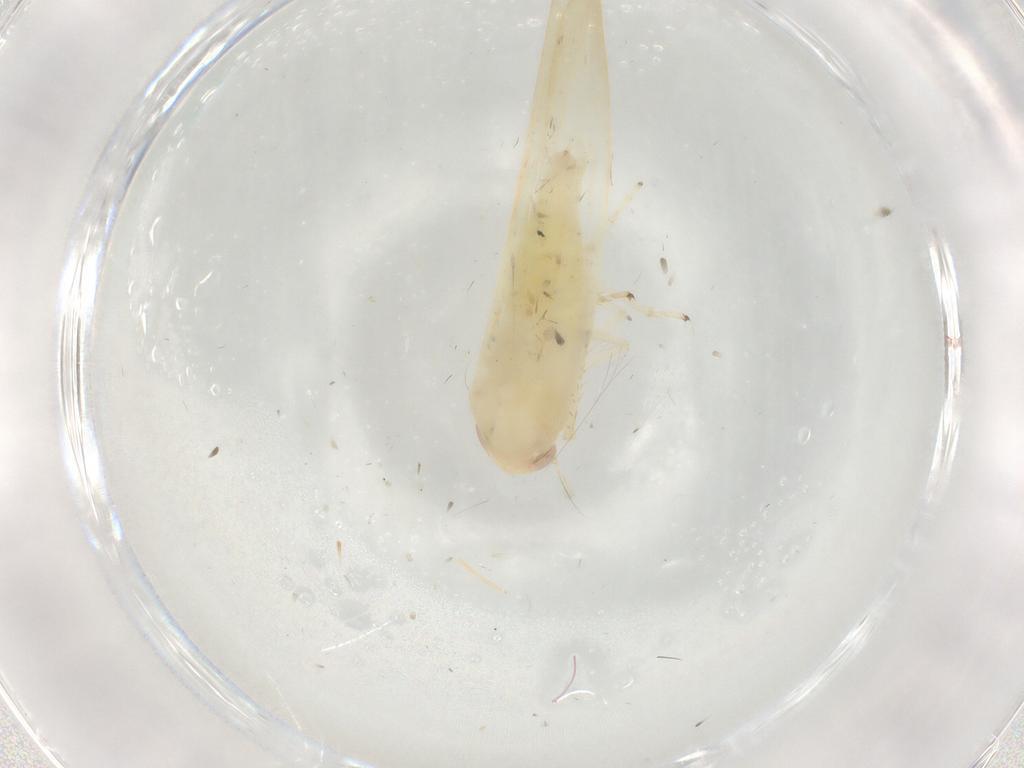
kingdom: Animalia
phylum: Arthropoda
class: Insecta
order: Hemiptera
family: Cicadellidae
